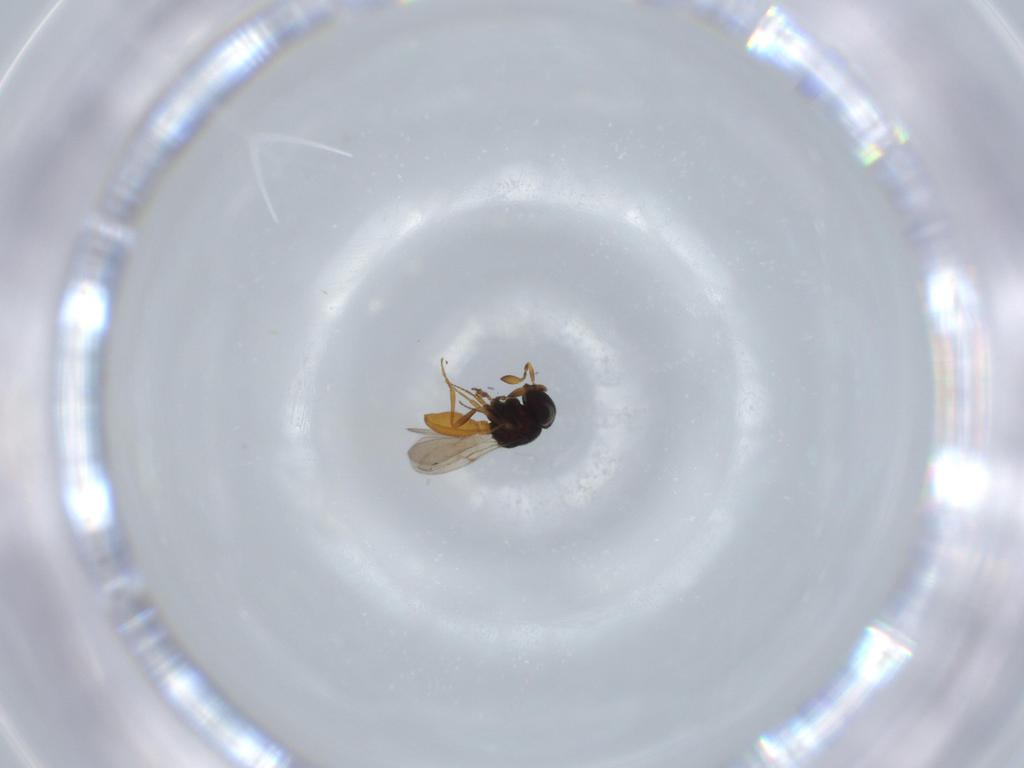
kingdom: Animalia
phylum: Arthropoda
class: Insecta
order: Hymenoptera
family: Scelionidae
